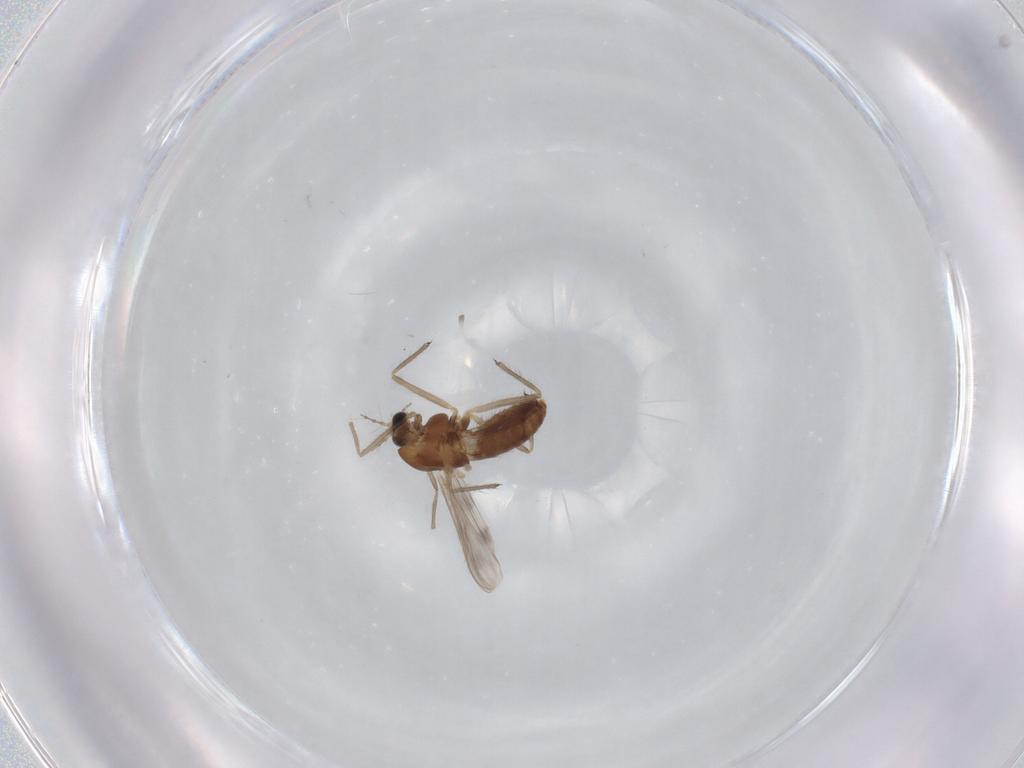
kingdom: Animalia
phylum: Arthropoda
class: Insecta
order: Diptera
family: Chironomidae
